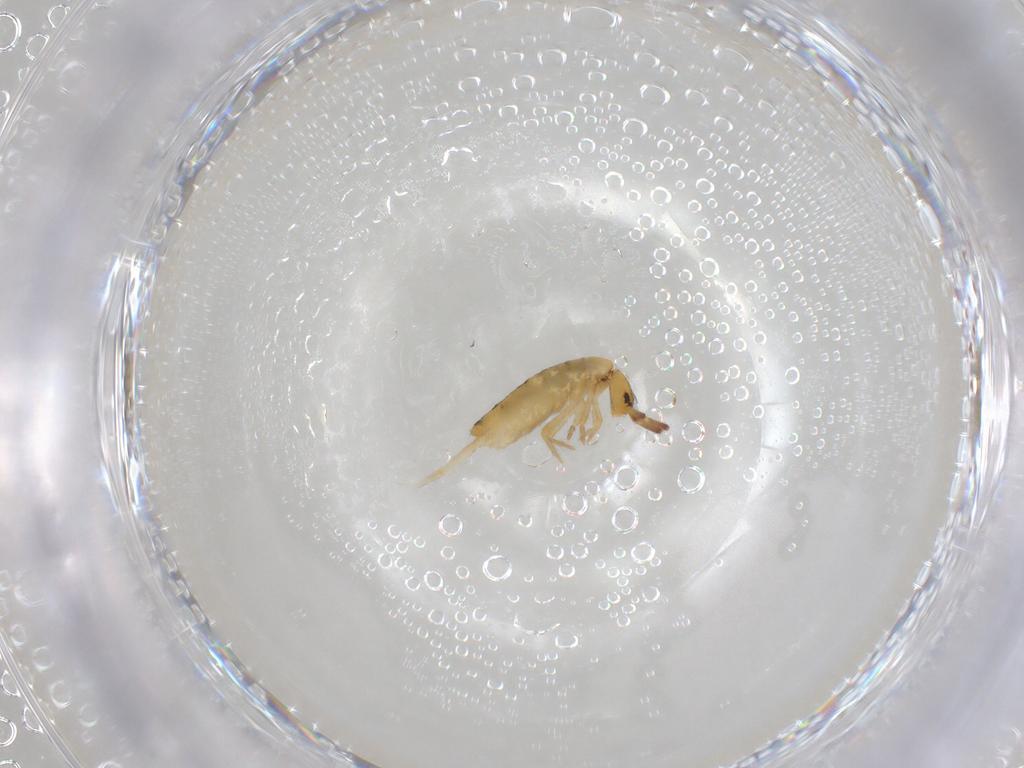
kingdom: Animalia
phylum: Arthropoda
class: Collembola
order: Entomobryomorpha
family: Entomobryidae
